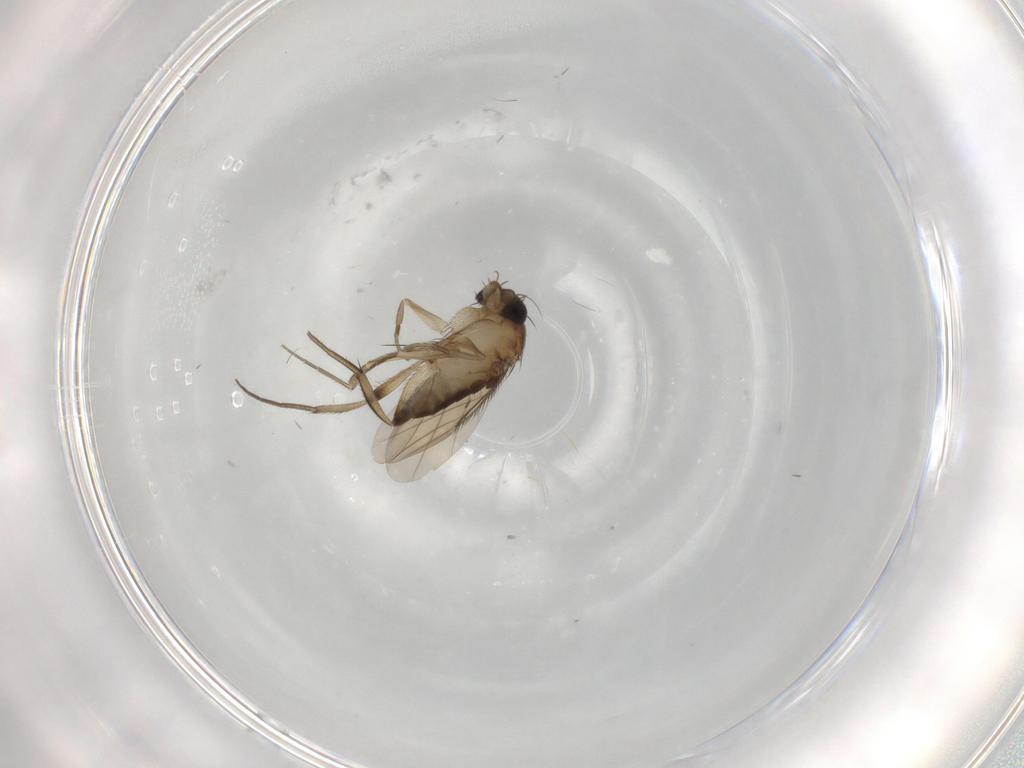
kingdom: Animalia
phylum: Arthropoda
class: Insecta
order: Diptera
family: Phoridae
